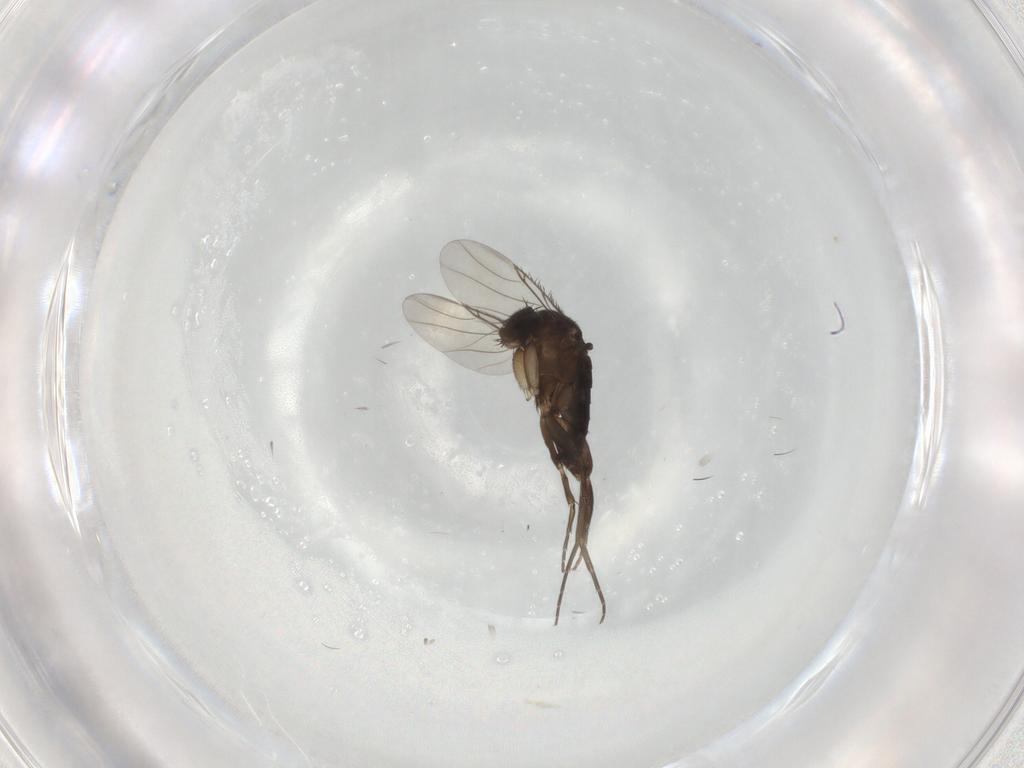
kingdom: Animalia
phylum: Arthropoda
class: Insecta
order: Diptera
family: Phoridae
